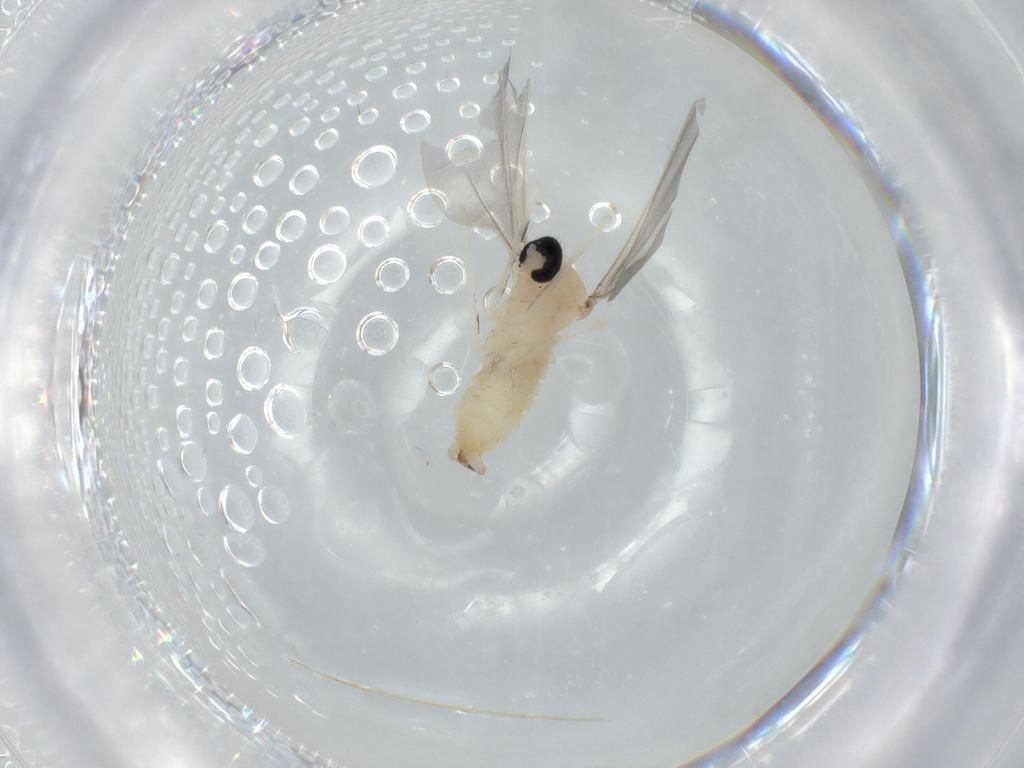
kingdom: Animalia
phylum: Arthropoda
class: Insecta
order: Diptera
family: Cecidomyiidae
